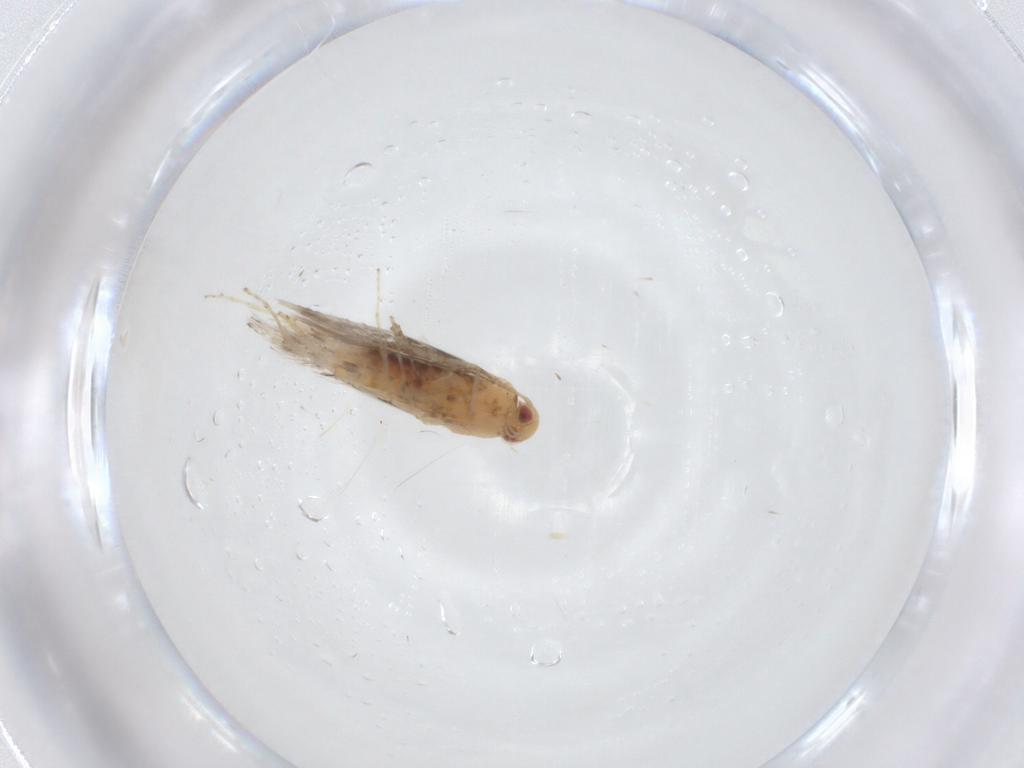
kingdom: Animalia
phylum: Arthropoda
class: Insecta
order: Lepidoptera
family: Gracillariidae
